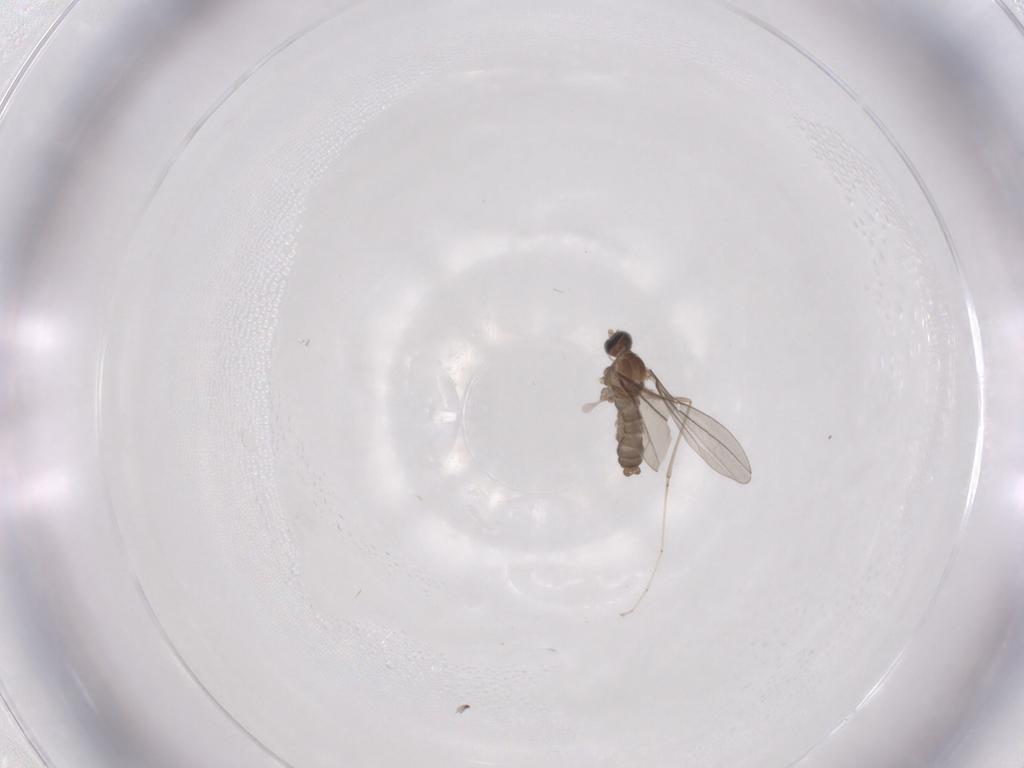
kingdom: Animalia
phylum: Arthropoda
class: Insecta
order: Diptera
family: Cecidomyiidae
